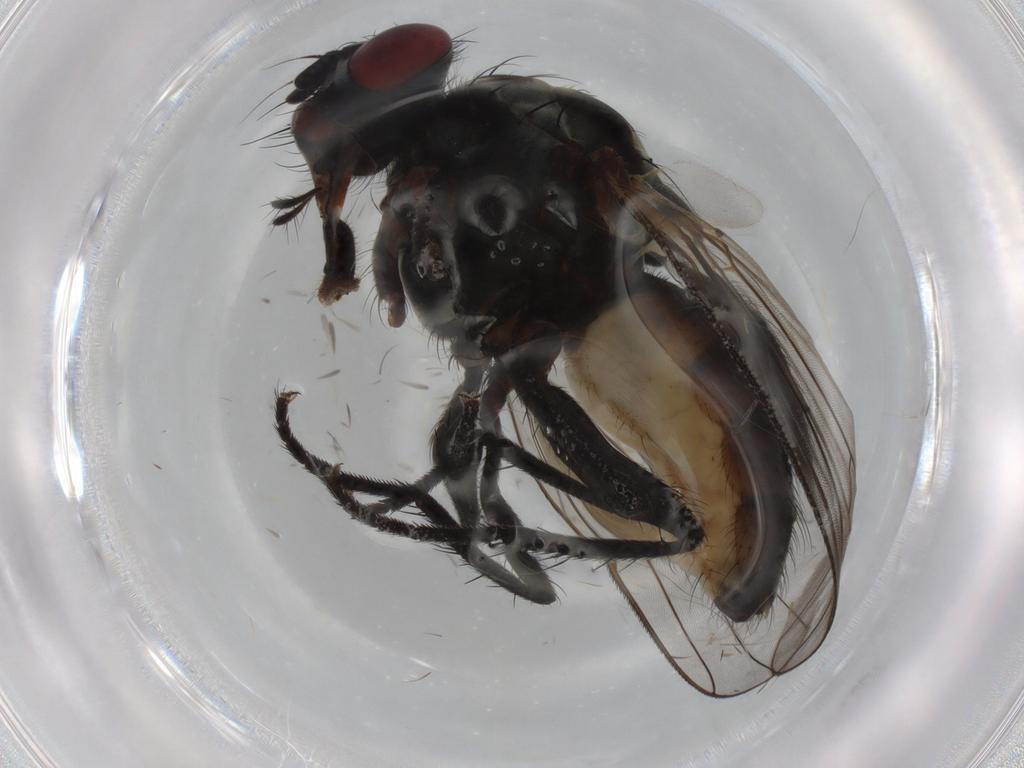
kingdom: Animalia
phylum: Arthropoda
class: Insecta
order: Diptera
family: Anthomyiidae
